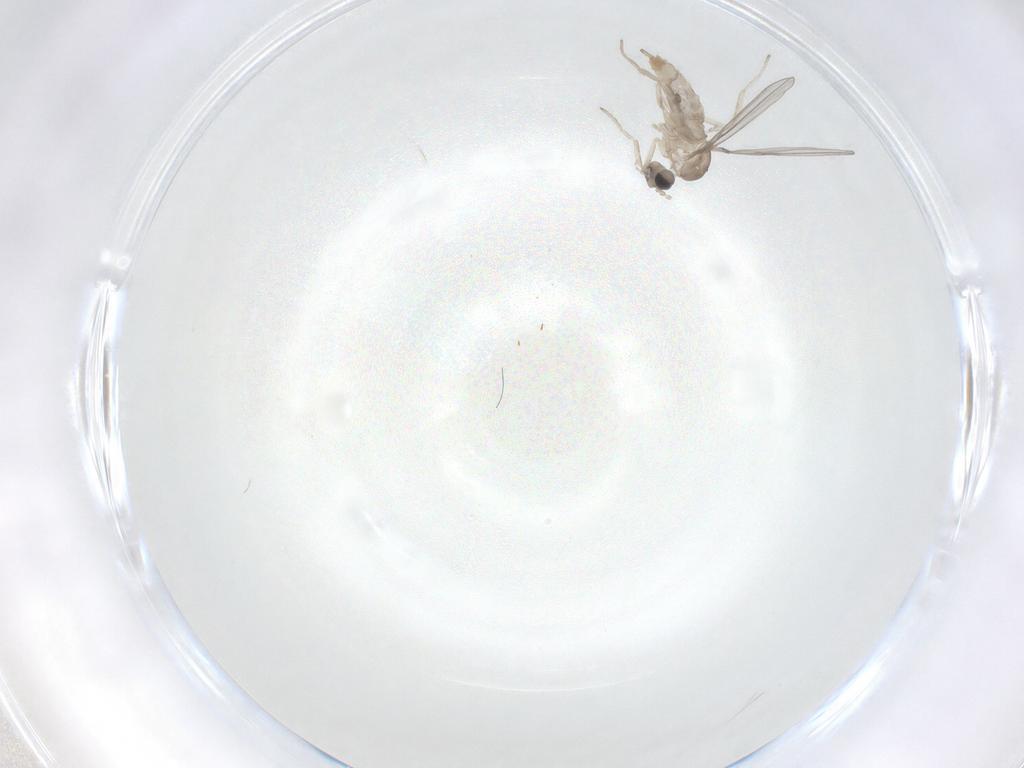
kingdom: Animalia
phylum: Arthropoda
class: Insecta
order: Diptera
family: Cecidomyiidae
